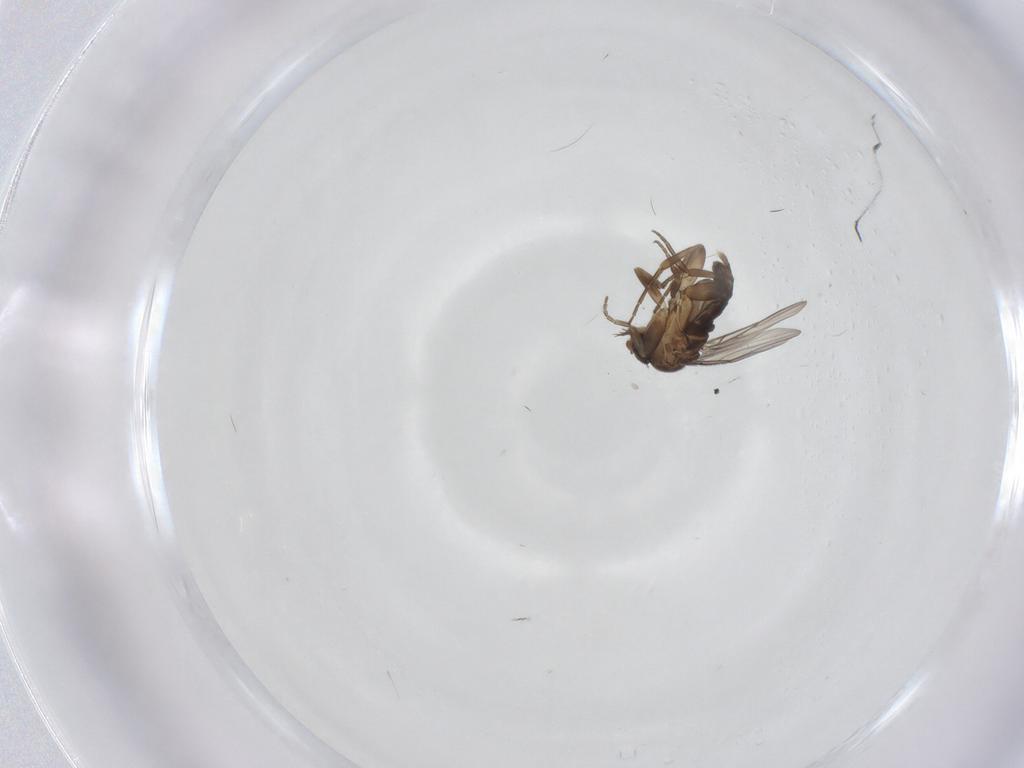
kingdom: Animalia
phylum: Arthropoda
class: Insecta
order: Diptera
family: Phoridae
